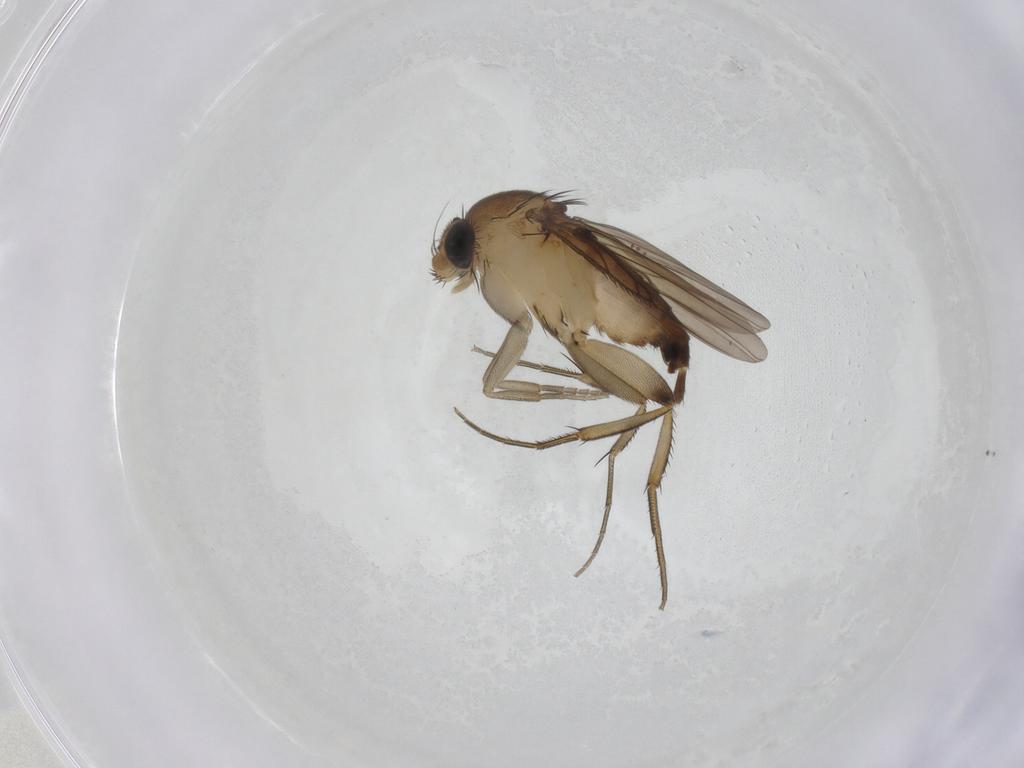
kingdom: Animalia
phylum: Arthropoda
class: Insecta
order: Diptera
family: Phoridae
